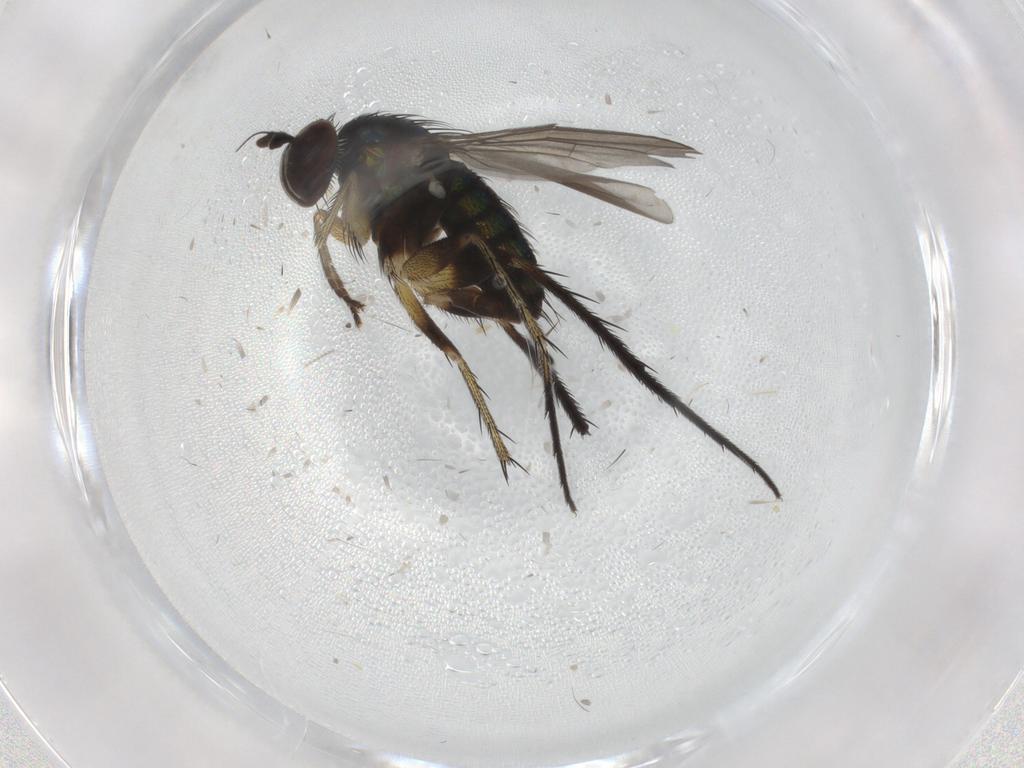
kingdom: Animalia
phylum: Arthropoda
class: Insecta
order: Diptera
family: Dolichopodidae
